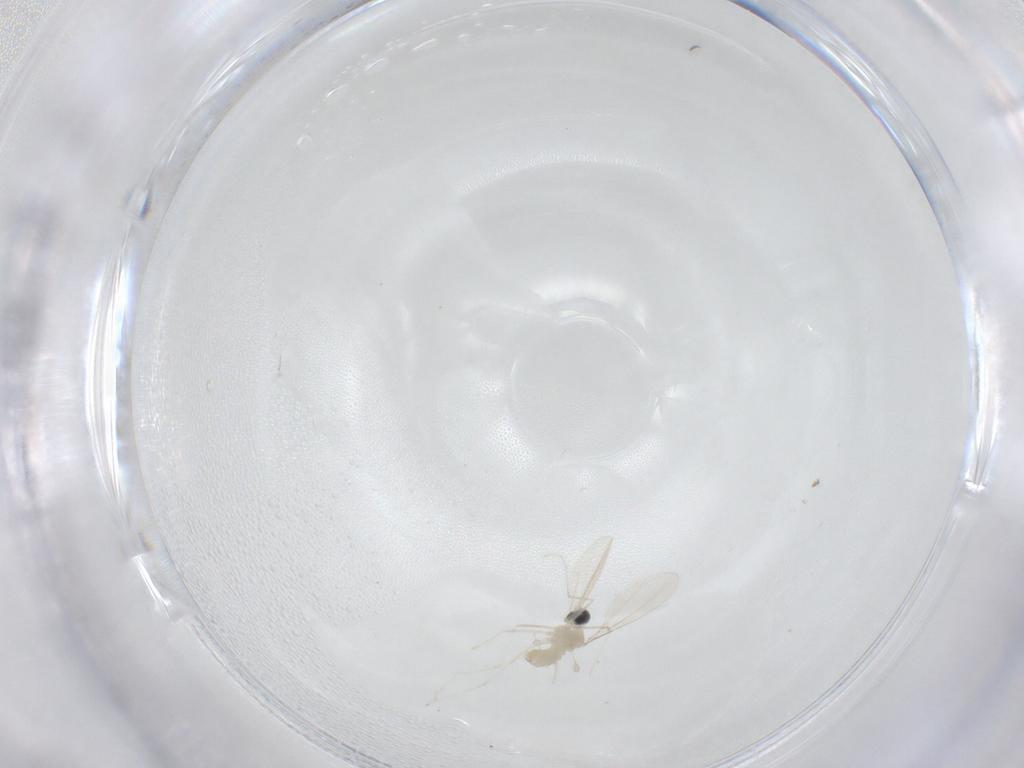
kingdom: Animalia
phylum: Arthropoda
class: Insecta
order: Diptera
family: Cecidomyiidae
